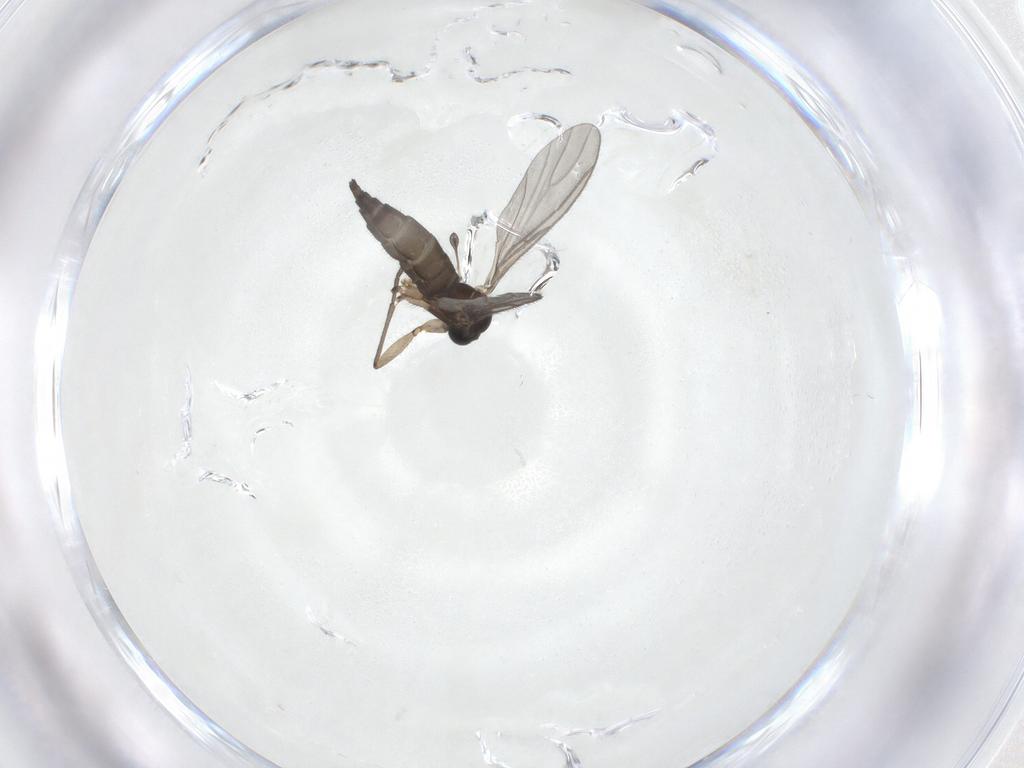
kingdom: Animalia
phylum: Arthropoda
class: Insecta
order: Diptera
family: Sciaridae
